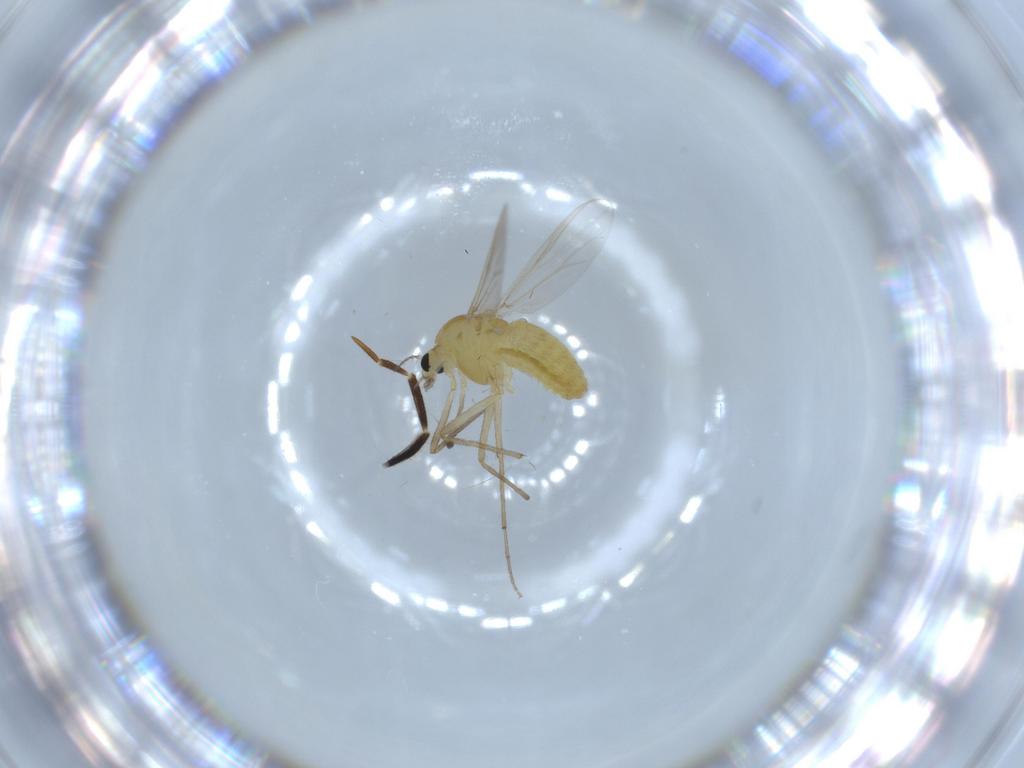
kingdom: Animalia
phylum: Arthropoda
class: Insecta
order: Diptera
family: Chironomidae
